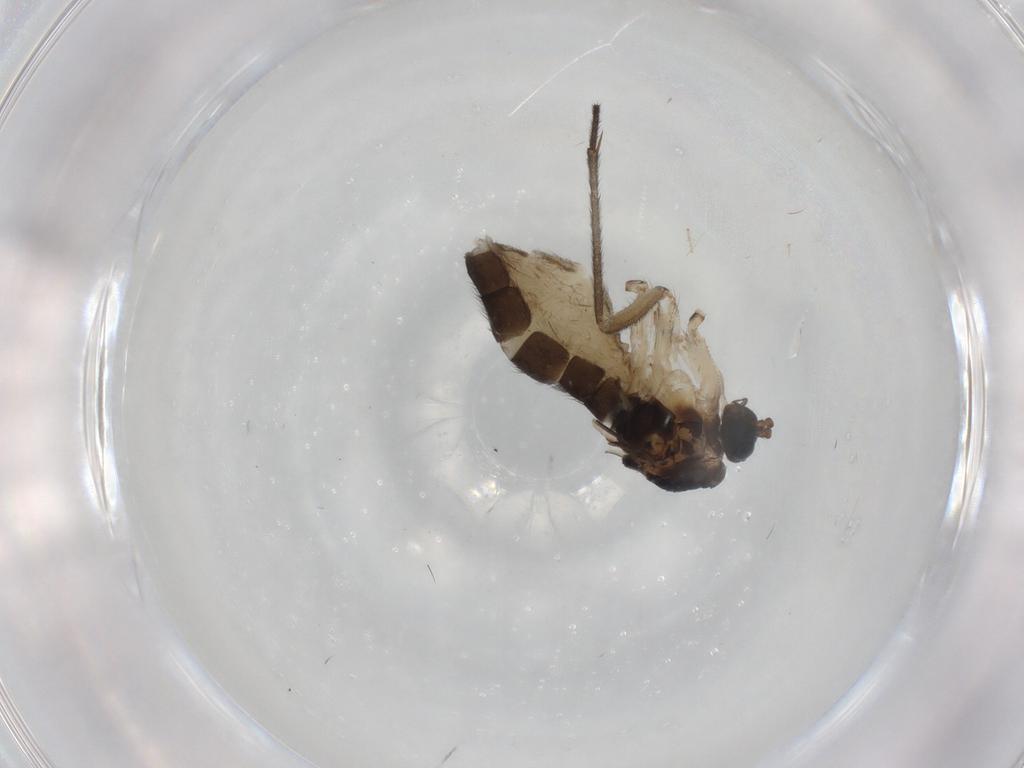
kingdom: Animalia
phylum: Arthropoda
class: Insecta
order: Diptera
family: Sciaridae
